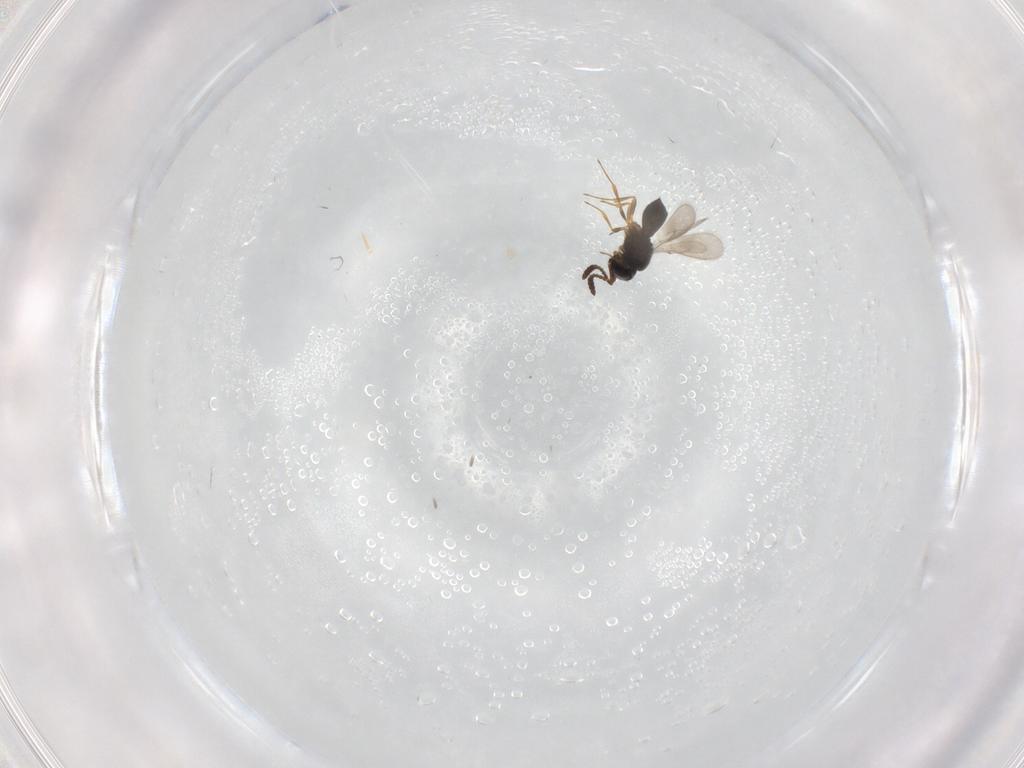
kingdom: Animalia
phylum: Arthropoda
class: Insecta
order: Hymenoptera
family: Scelionidae
